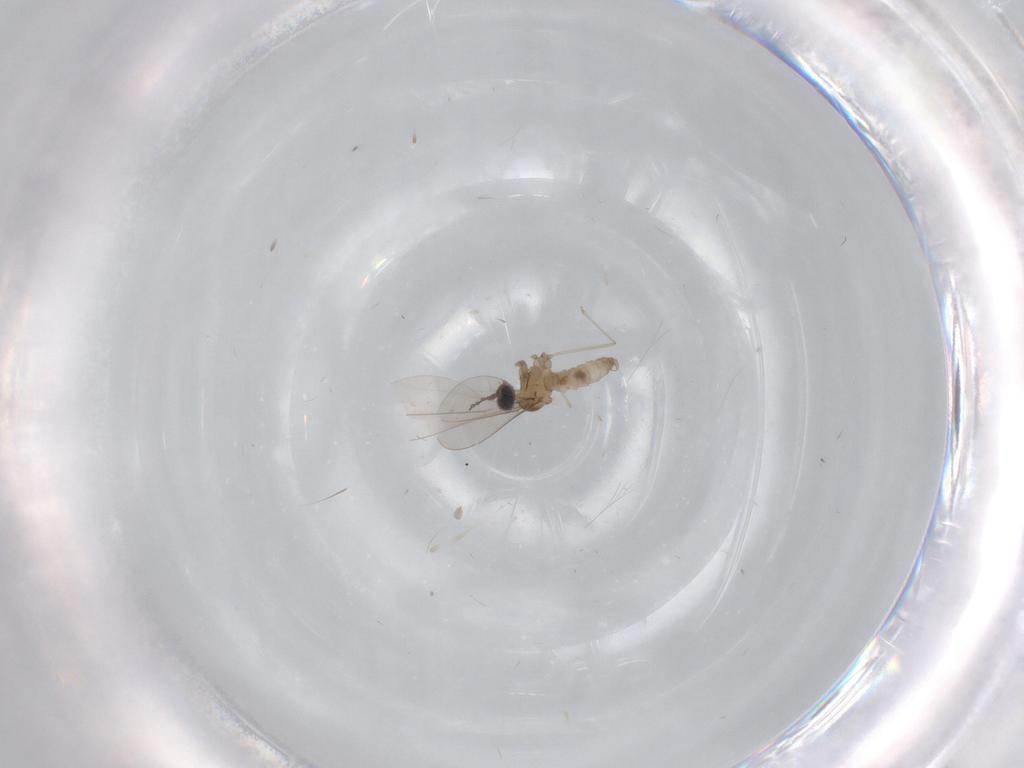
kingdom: Animalia
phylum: Arthropoda
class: Insecta
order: Diptera
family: Cecidomyiidae
